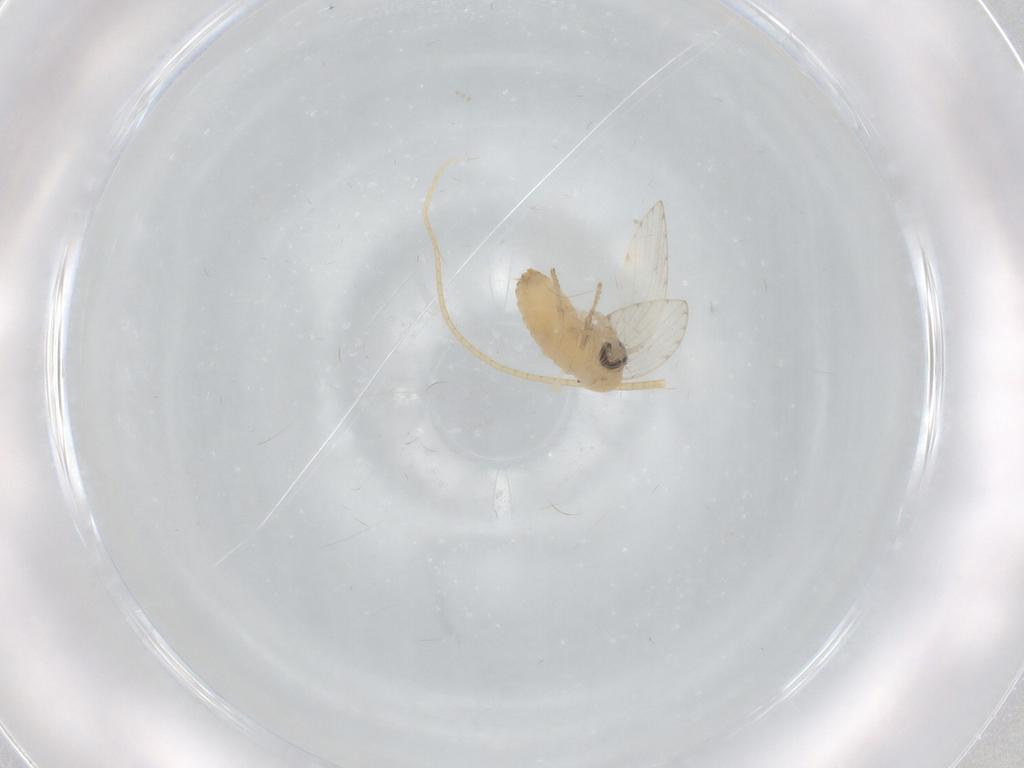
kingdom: Animalia
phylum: Arthropoda
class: Insecta
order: Diptera
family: Psychodidae
